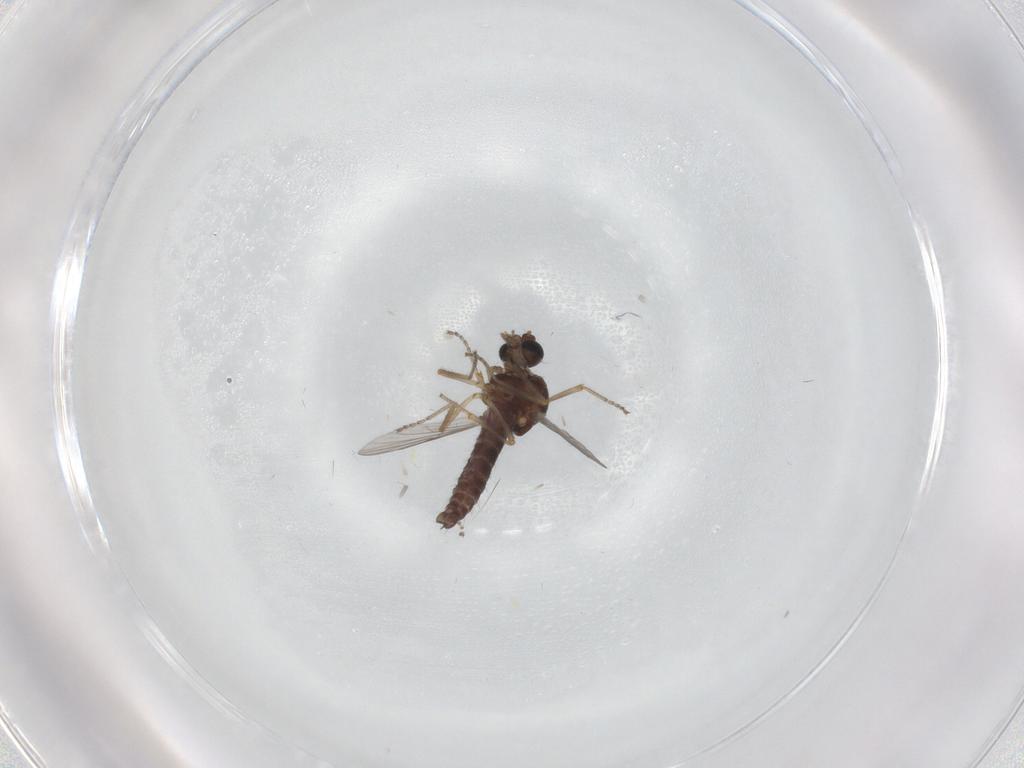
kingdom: Animalia
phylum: Arthropoda
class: Insecta
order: Diptera
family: Ceratopogonidae
